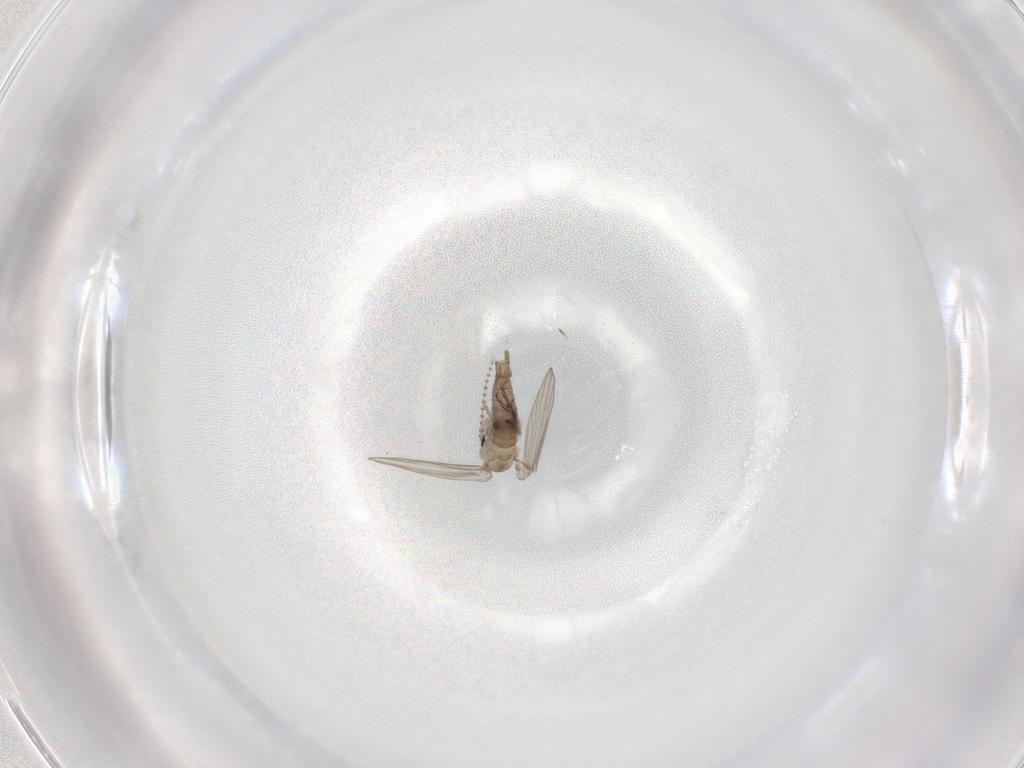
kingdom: Animalia
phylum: Arthropoda
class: Insecta
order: Diptera
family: Psychodidae
